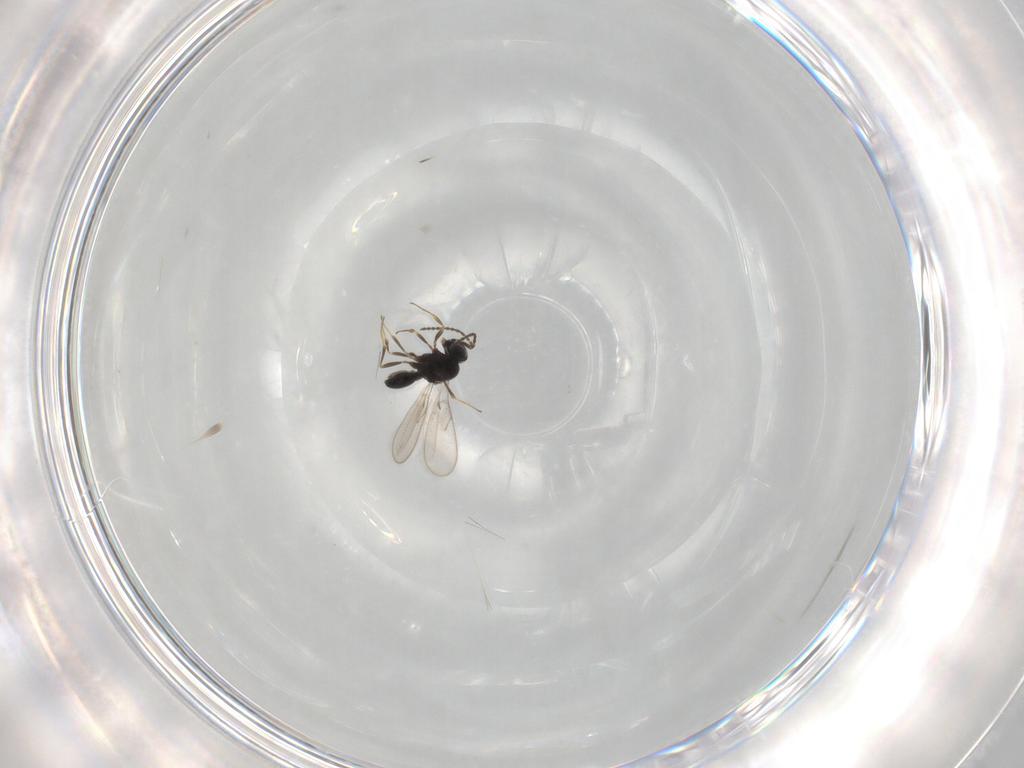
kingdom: Animalia
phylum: Arthropoda
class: Insecta
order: Hymenoptera
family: Scelionidae
